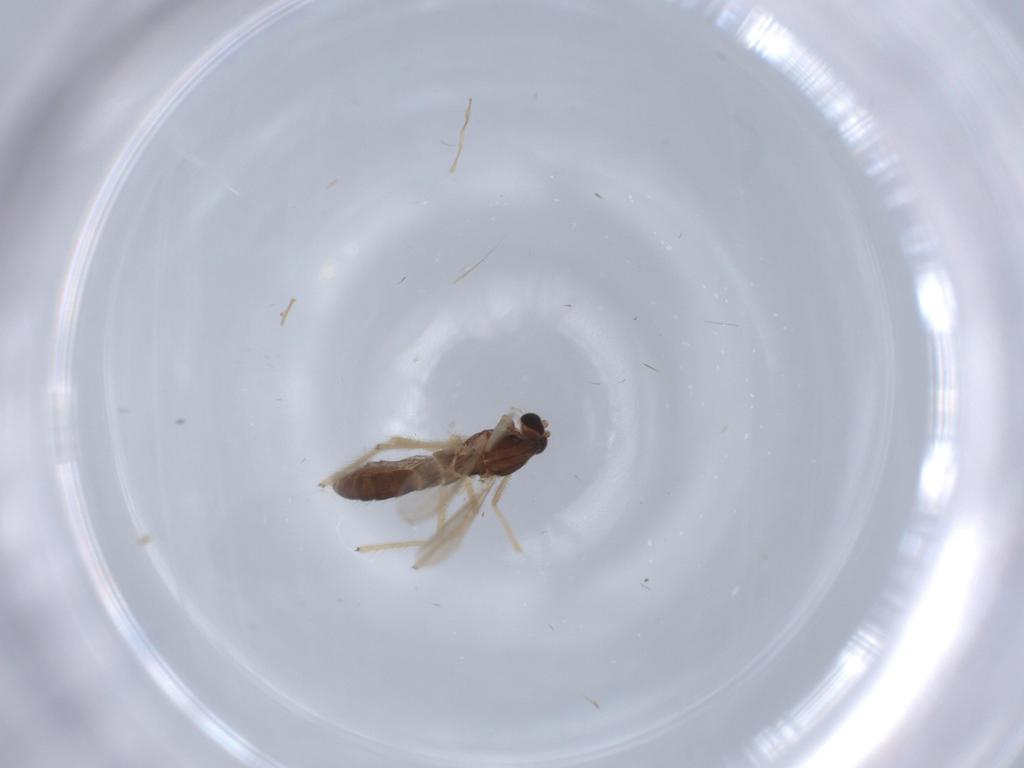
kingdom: Animalia
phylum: Arthropoda
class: Insecta
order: Diptera
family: Chironomidae
